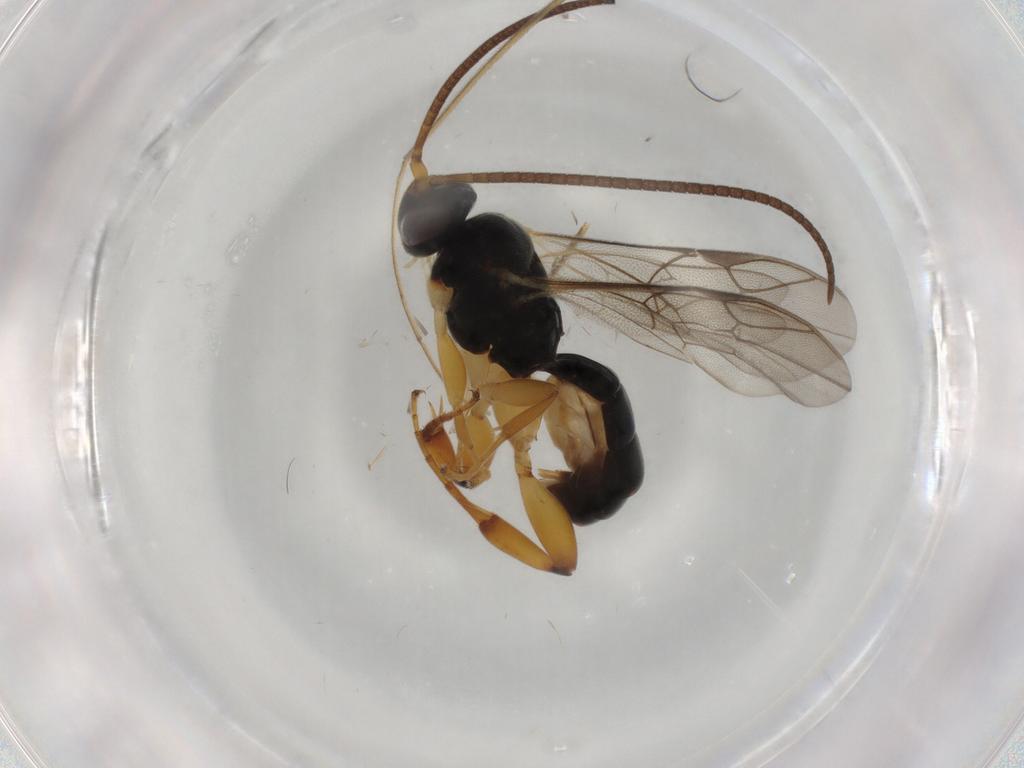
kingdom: Animalia
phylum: Arthropoda
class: Insecta
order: Hymenoptera
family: Ichneumonidae
